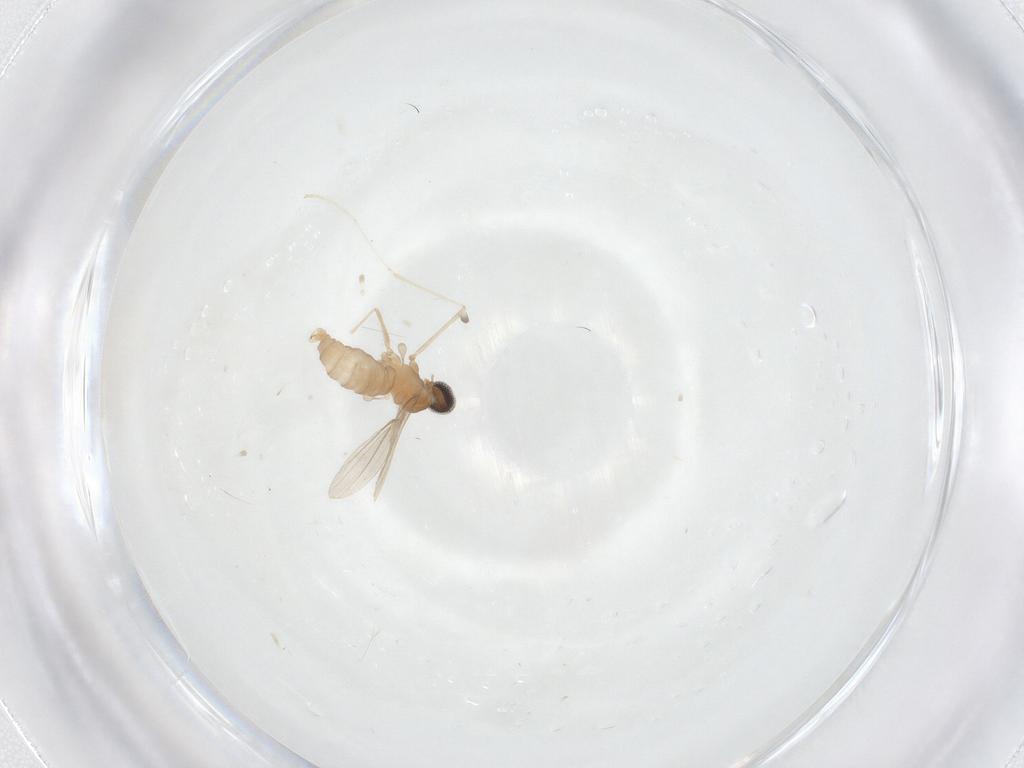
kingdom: Animalia
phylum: Arthropoda
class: Insecta
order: Diptera
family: Cecidomyiidae
